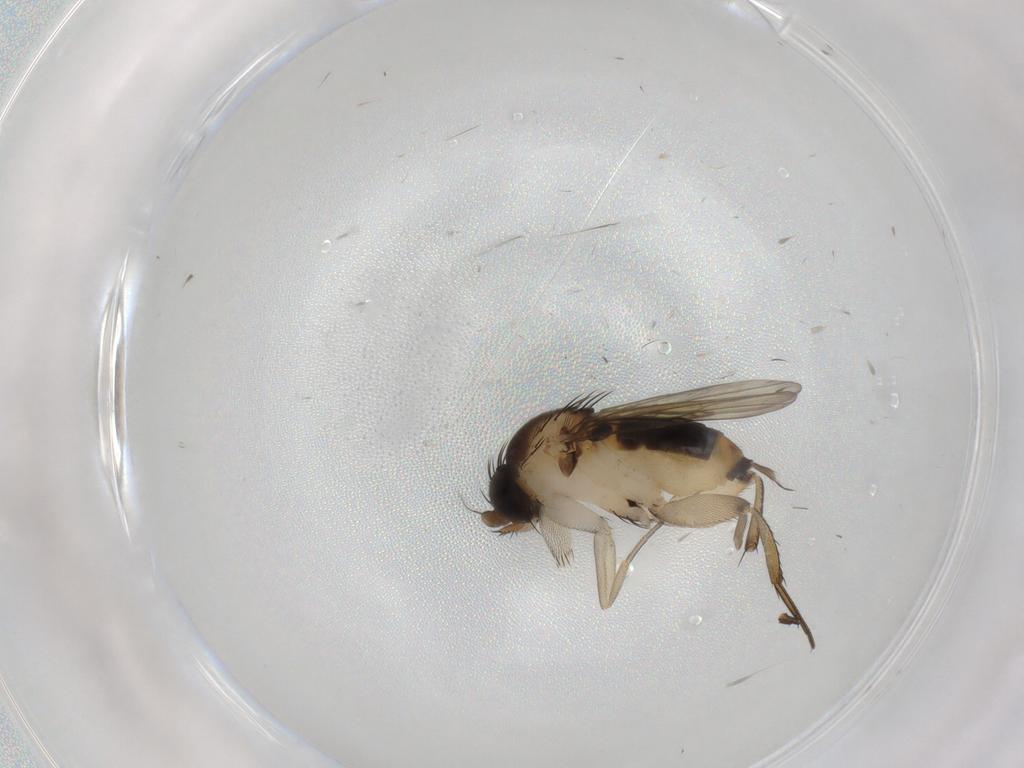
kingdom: Animalia
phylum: Arthropoda
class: Insecta
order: Diptera
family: Phoridae
